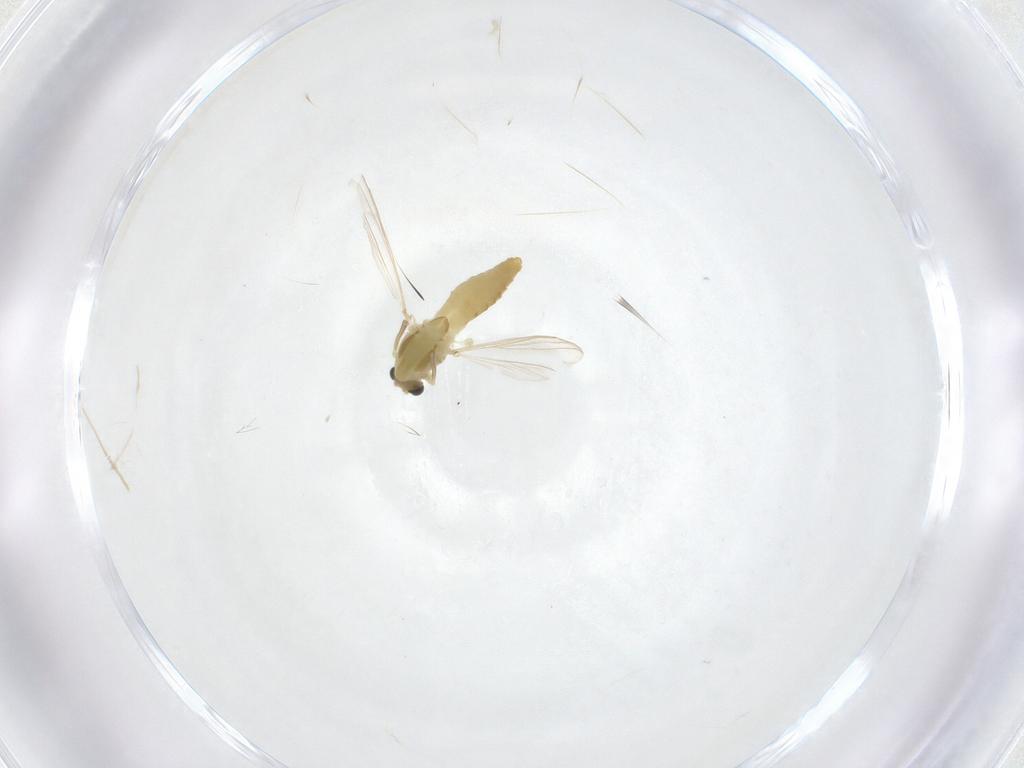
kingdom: Animalia
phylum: Arthropoda
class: Insecta
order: Diptera
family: Chironomidae
